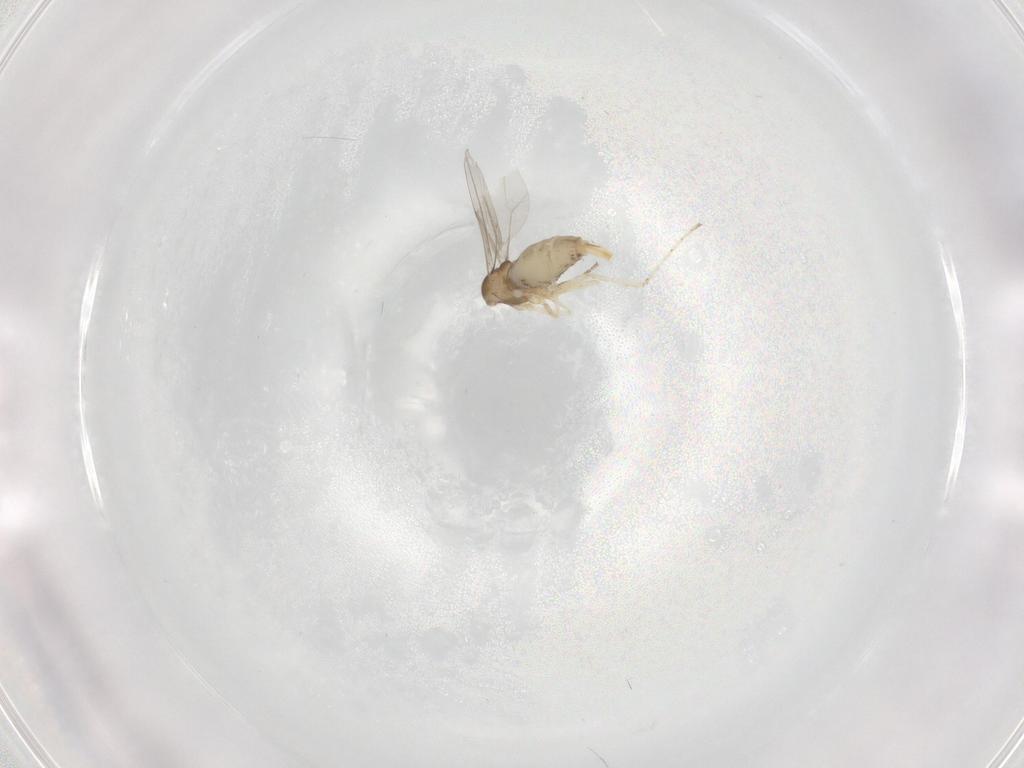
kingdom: Animalia
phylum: Arthropoda
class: Insecta
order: Diptera
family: Cecidomyiidae
